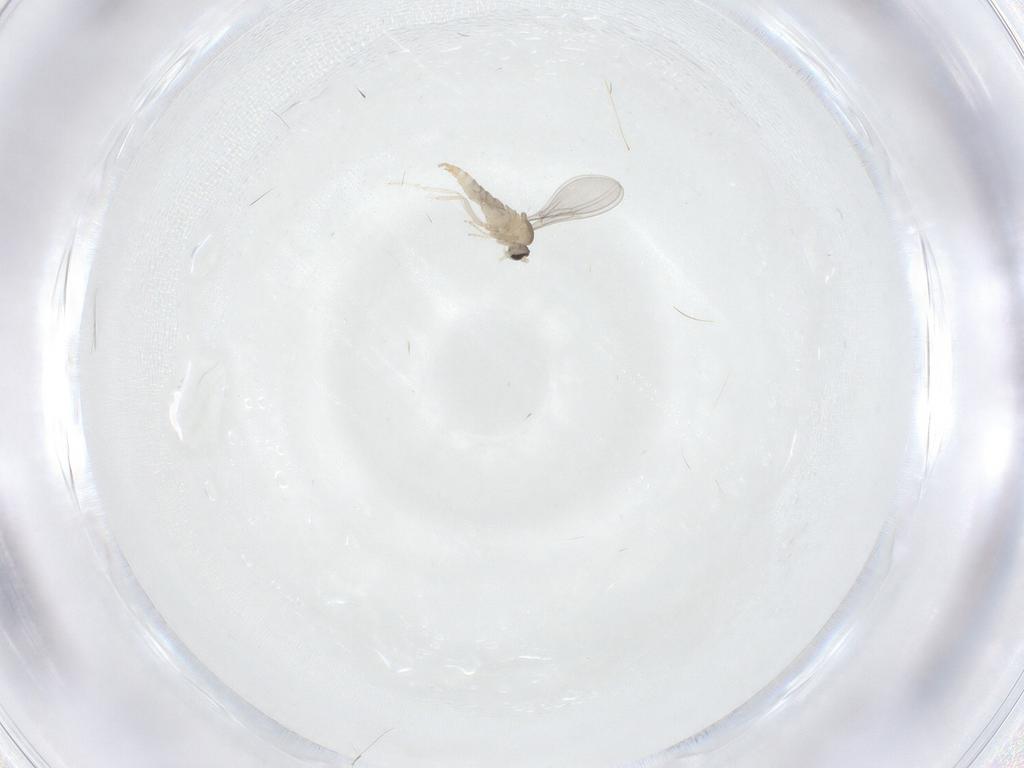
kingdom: Animalia
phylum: Arthropoda
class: Insecta
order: Diptera
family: Cecidomyiidae
